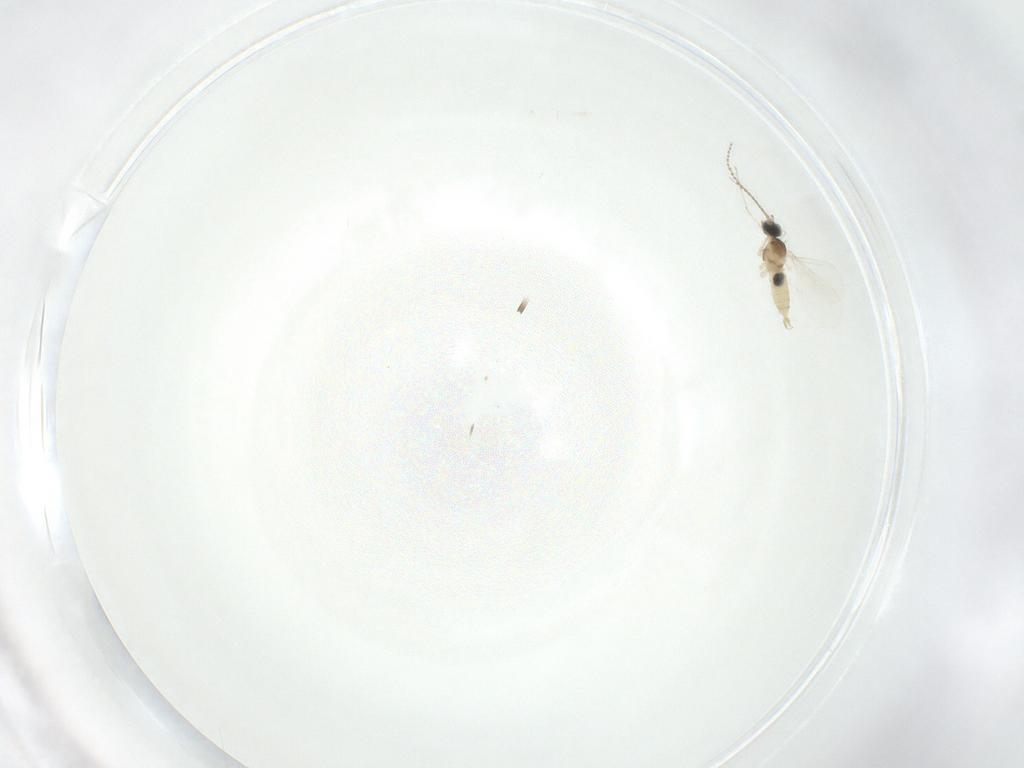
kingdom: Animalia
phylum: Arthropoda
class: Insecta
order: Diptera
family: Cecidomyiidae
